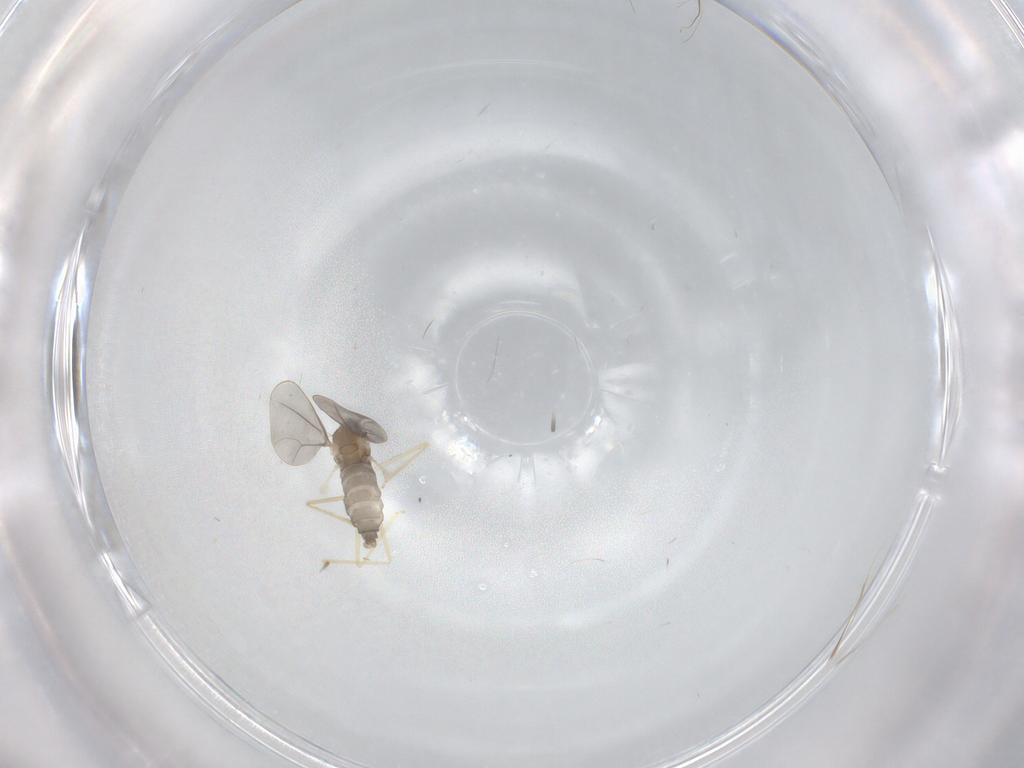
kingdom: Animalia
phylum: Arthropoda
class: Insecta
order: Diptera
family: Cecidomyiidae
